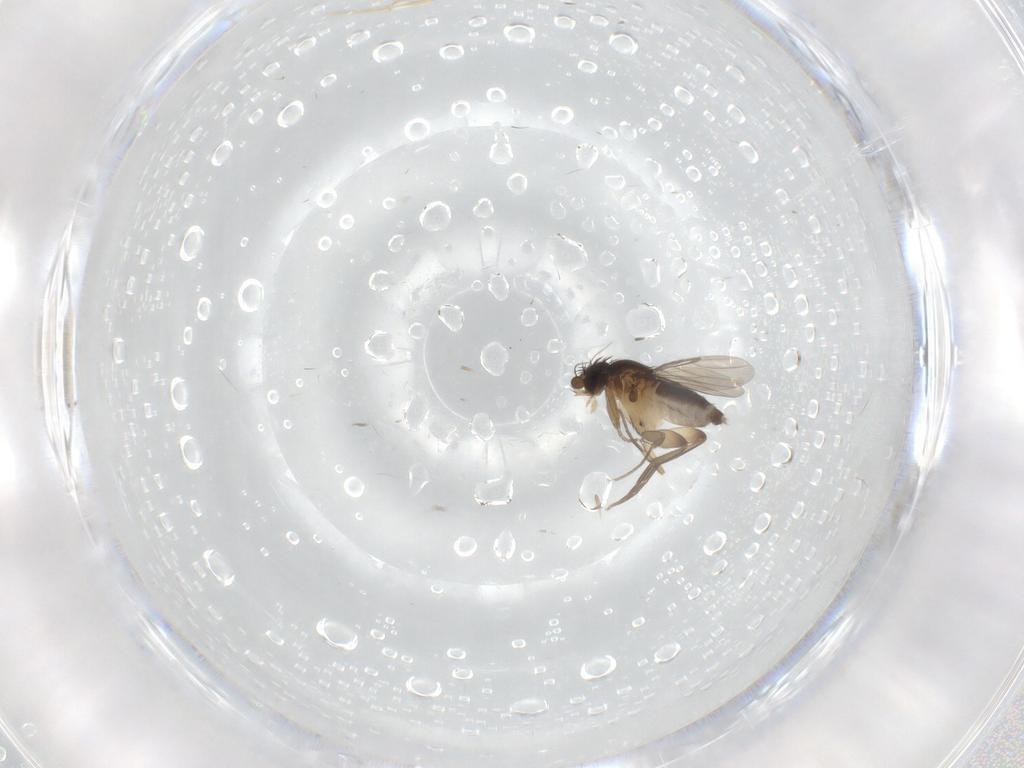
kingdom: Animalia
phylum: Arthropoda
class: Insecta
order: Diptera
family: Phoridae
